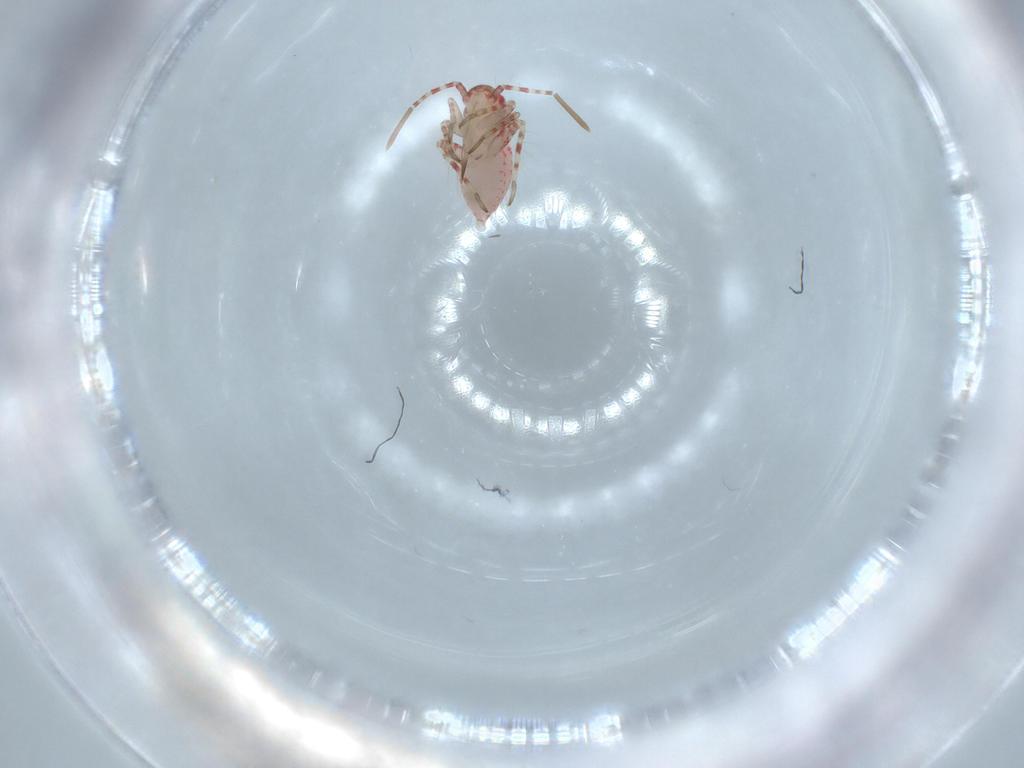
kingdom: Animalia
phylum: Arthropoda
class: Insecta
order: Hemiptera
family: Miridae
